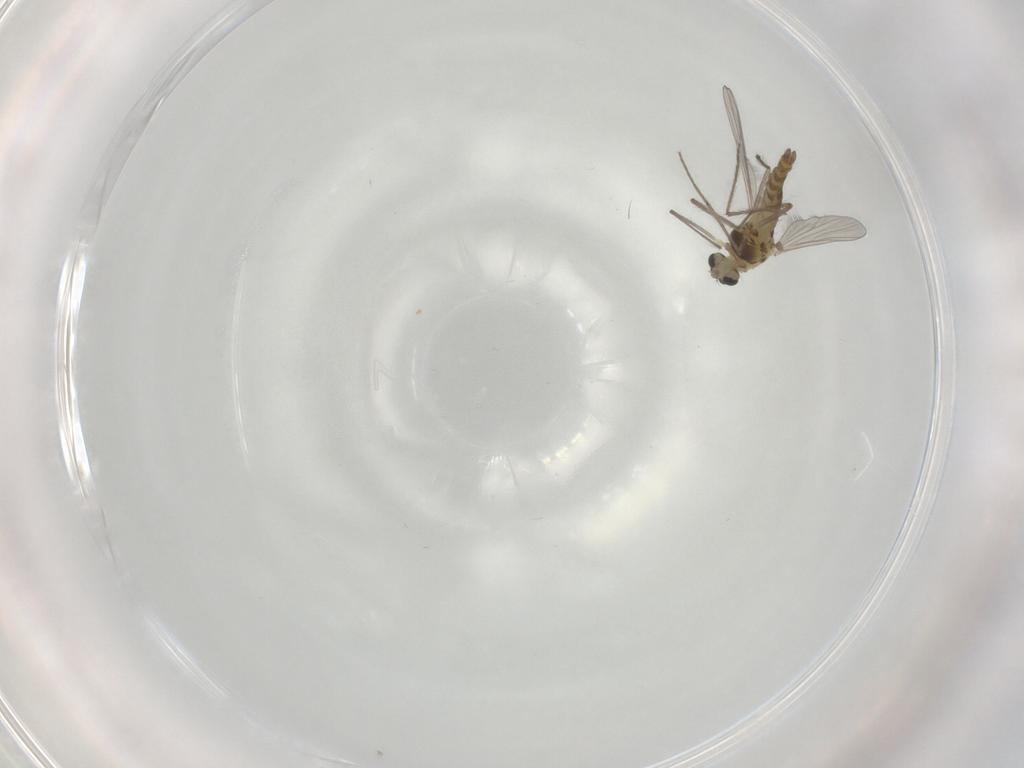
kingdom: Animalia
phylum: Arthropoda
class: Insecta
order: Diptera
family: Chironomidae
